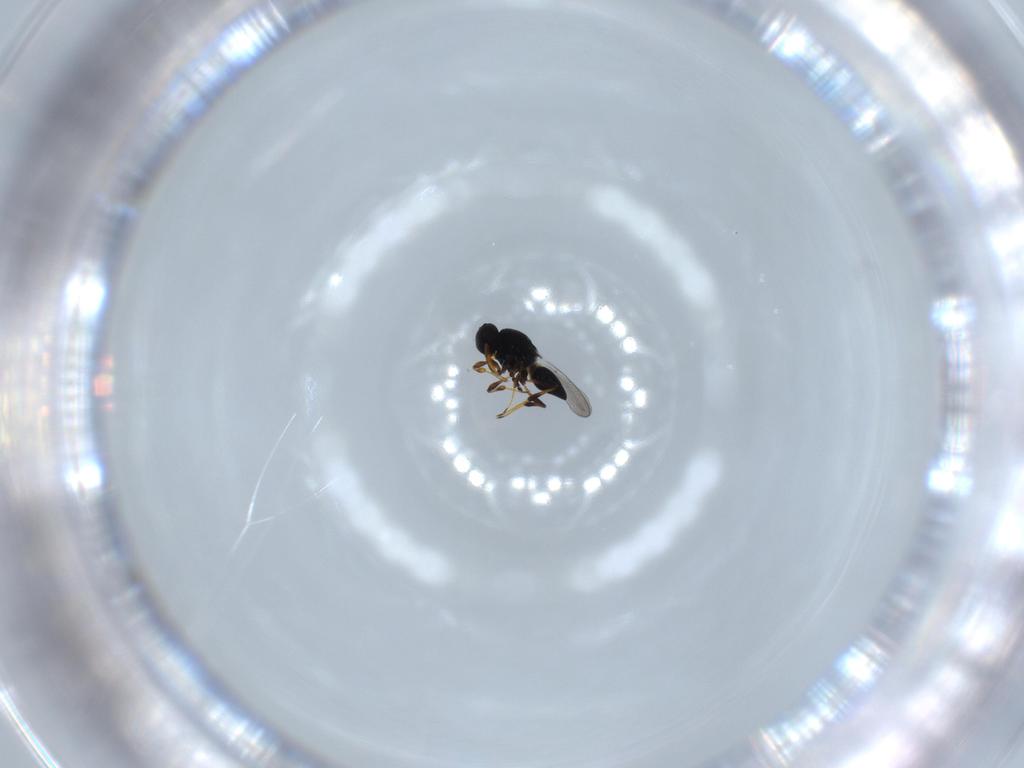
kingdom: Animalia
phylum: Arthropoda
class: Insecta
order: Hymenoptera
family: Platygastridae
